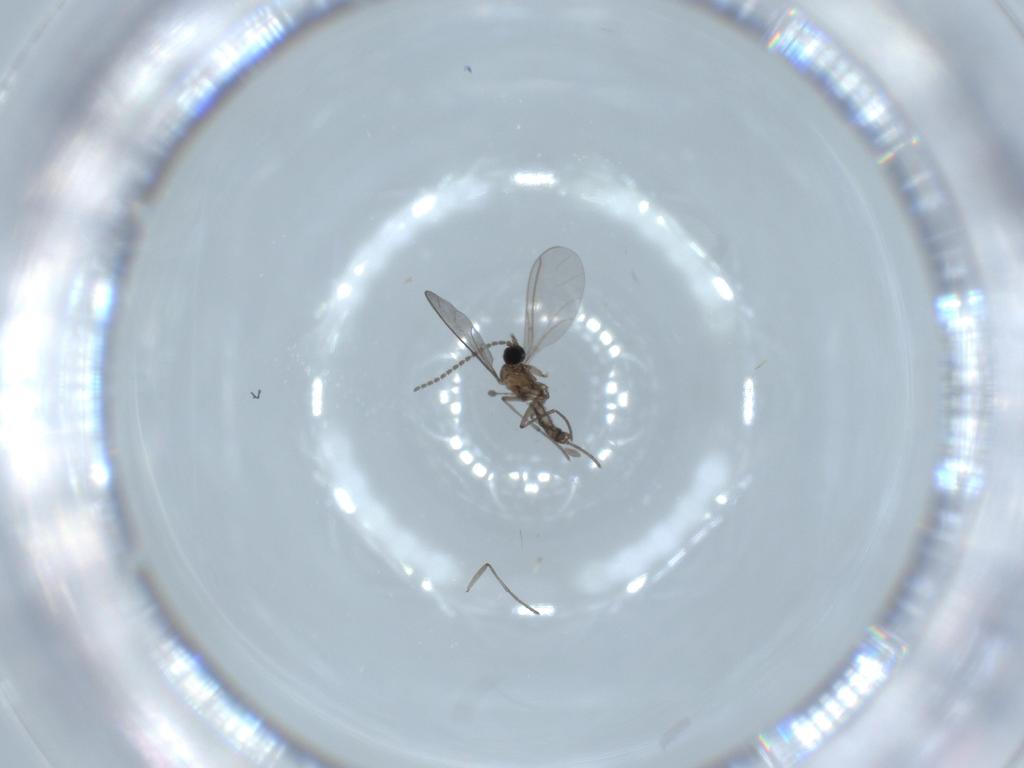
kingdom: Animalia
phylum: Arthropoda
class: Insecta
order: Diptera
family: Sciaridae
